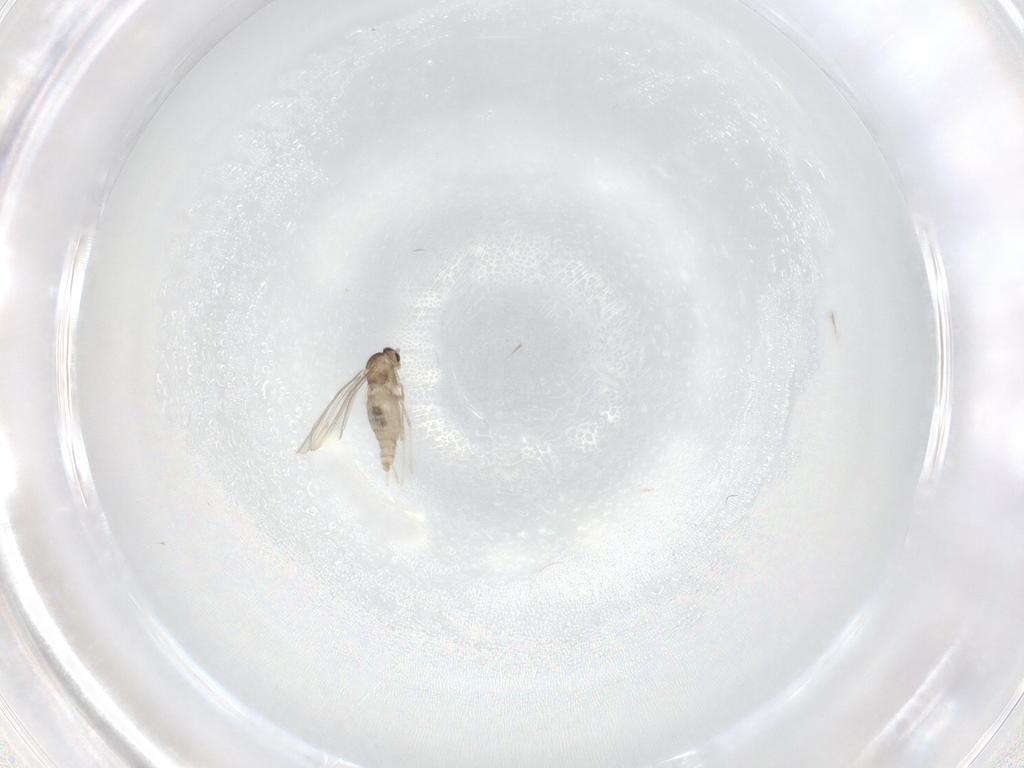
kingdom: Animalia
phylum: Arthropoda
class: Insecta
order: Diptera
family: Cecidomyiidae
